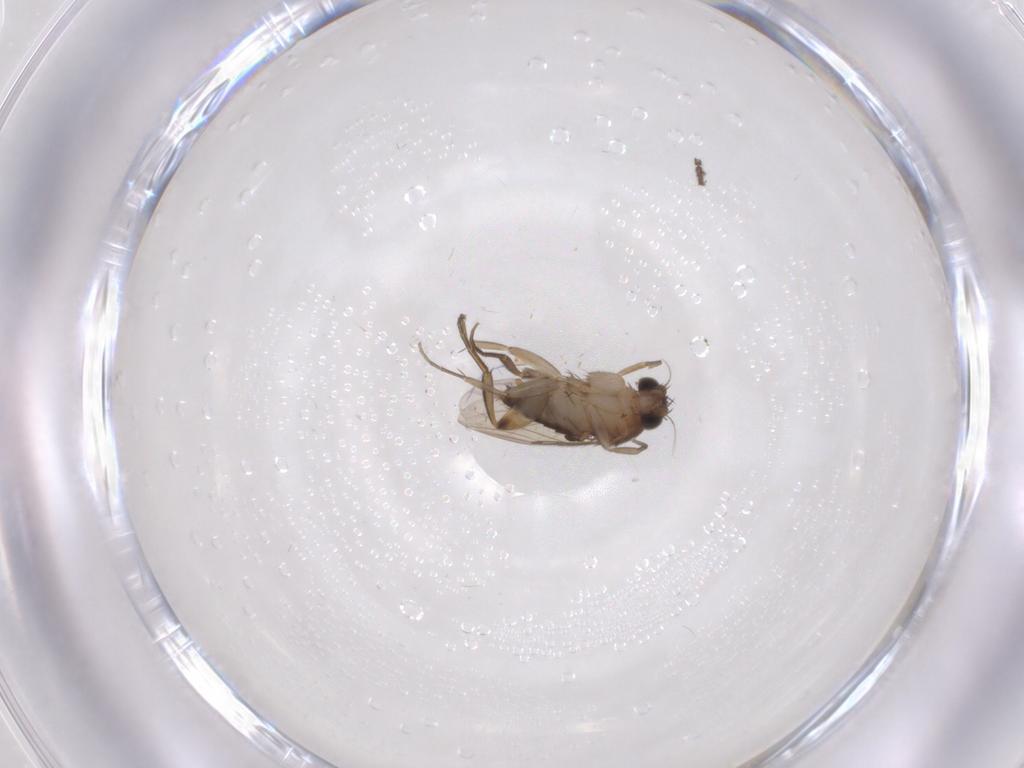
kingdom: Animalia
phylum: Arthropoda
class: Insecta
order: Diptera
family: Phoridae
